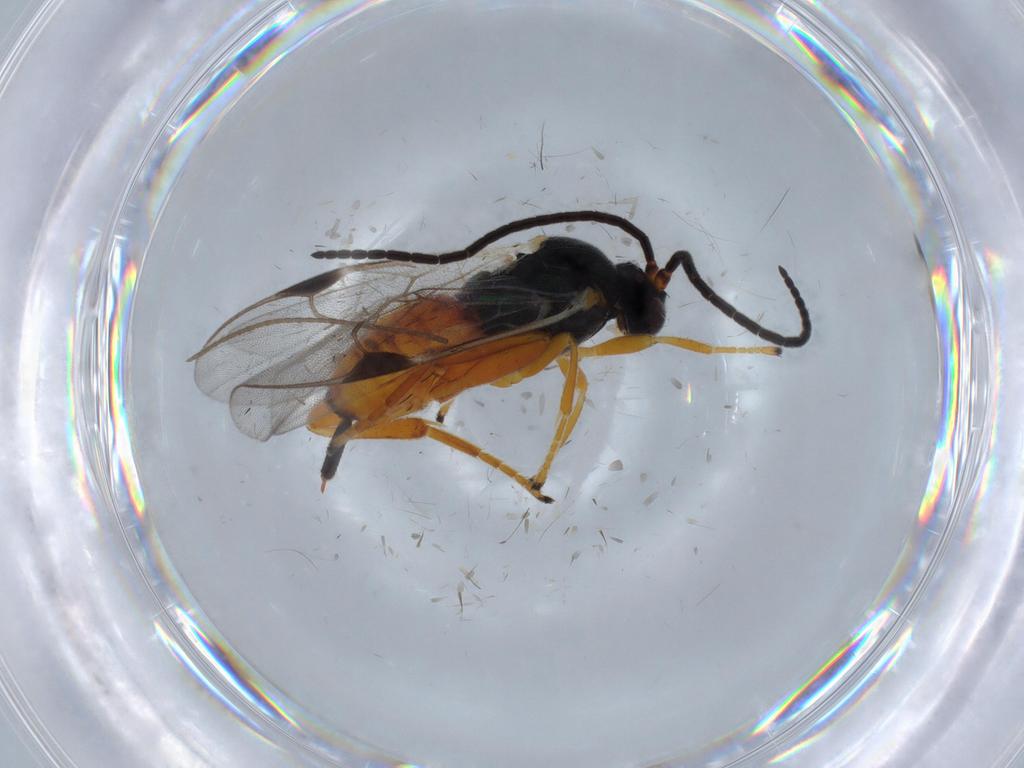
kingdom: Animalia
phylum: Arthropoda
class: Insecta
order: Hymenoptera
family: Braconidae
